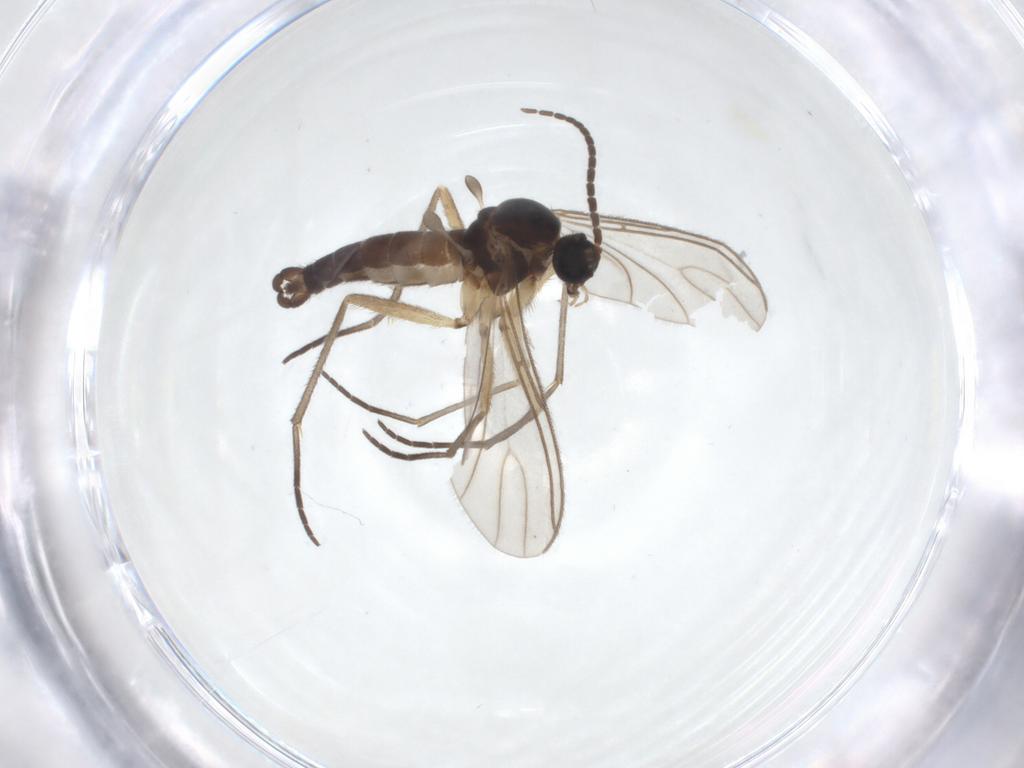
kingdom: Animalia
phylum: Arthropoda
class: Insecta
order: Diptera
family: Sciaridae
